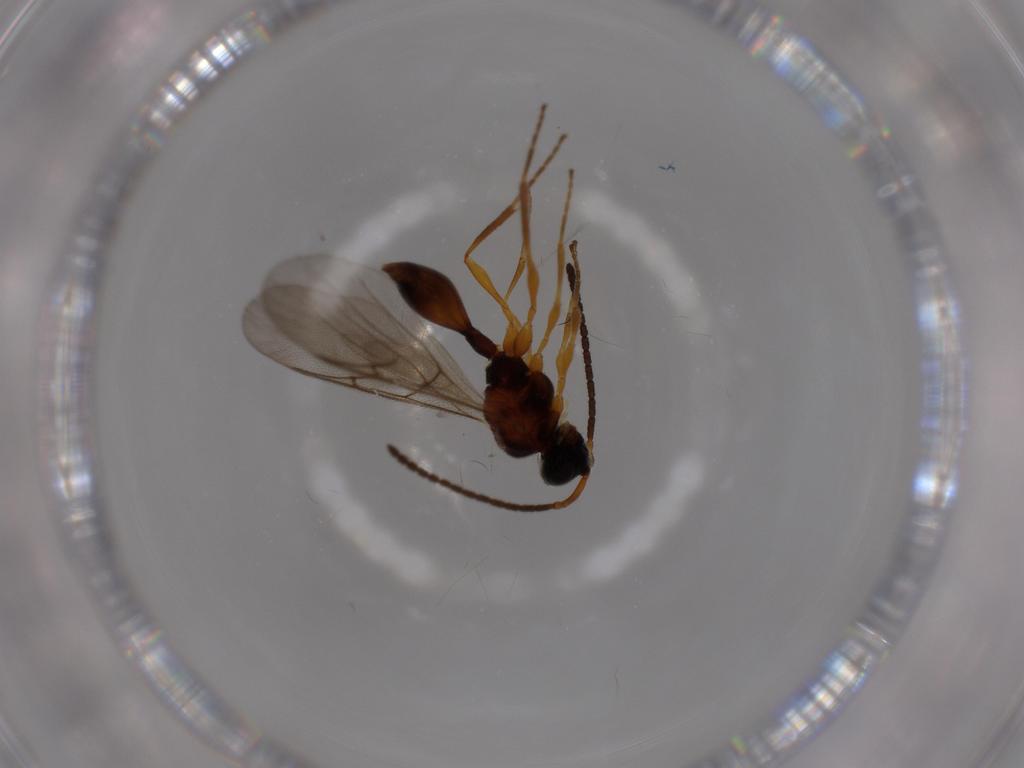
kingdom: Animalia
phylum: Arthropoda
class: Insecta
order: Hymenoptera
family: Diapriidae
